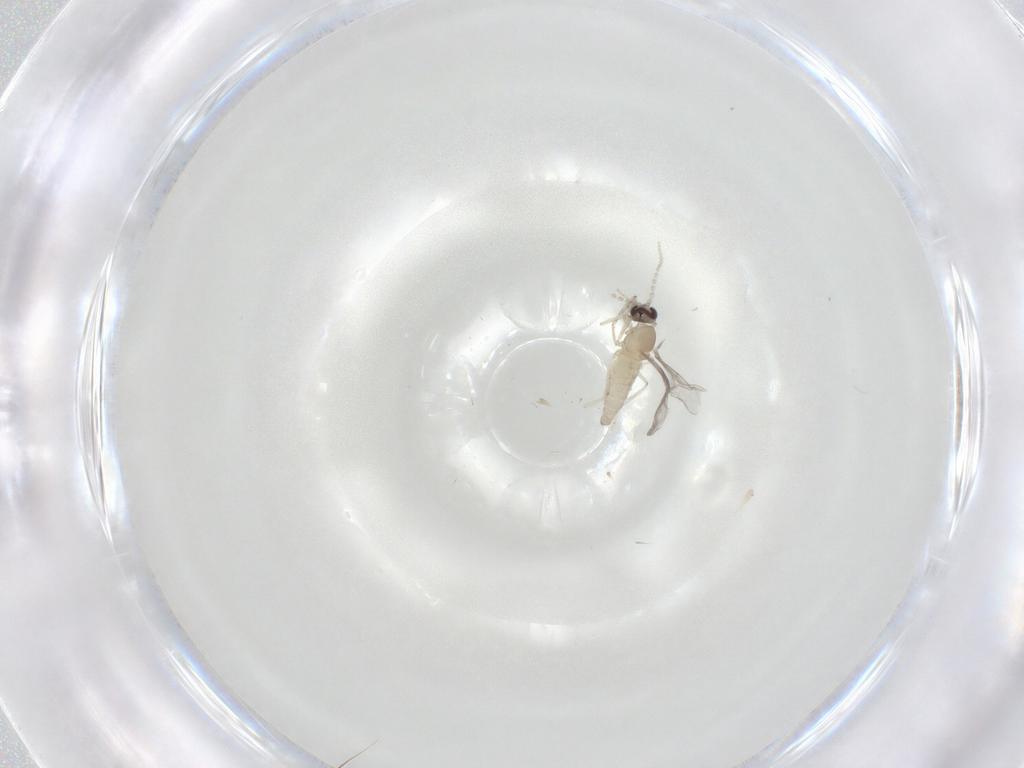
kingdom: Animalia
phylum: Arthropoda
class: Insecta
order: Diptera
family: Cecidomyiidae
